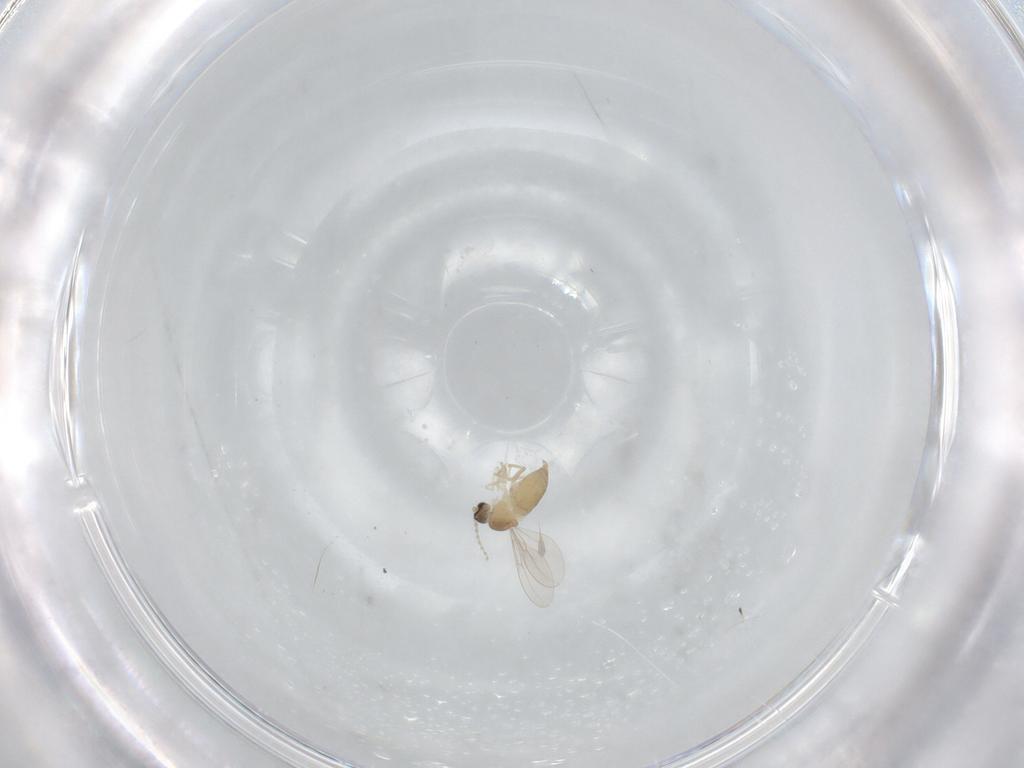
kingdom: Animalia
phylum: Arthropoda
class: Insecta
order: Diptera
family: Cecidomyiidae
